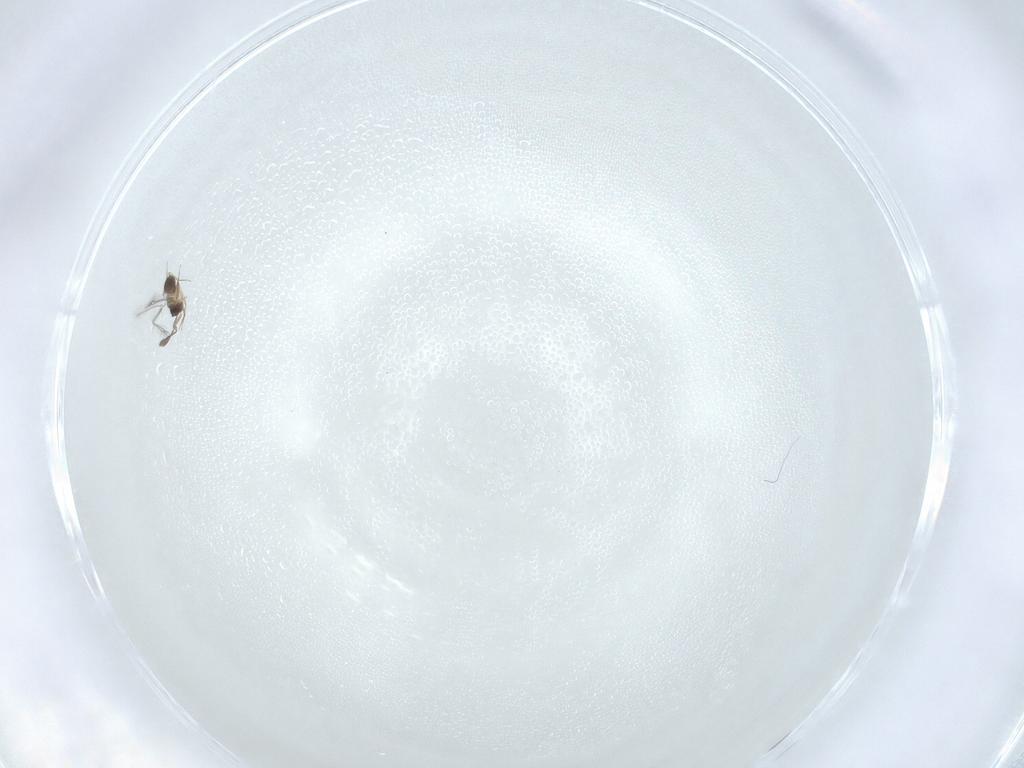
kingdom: Animalia
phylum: Arthropoda
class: Insecta
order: Hymenoptera
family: Mymaridae
